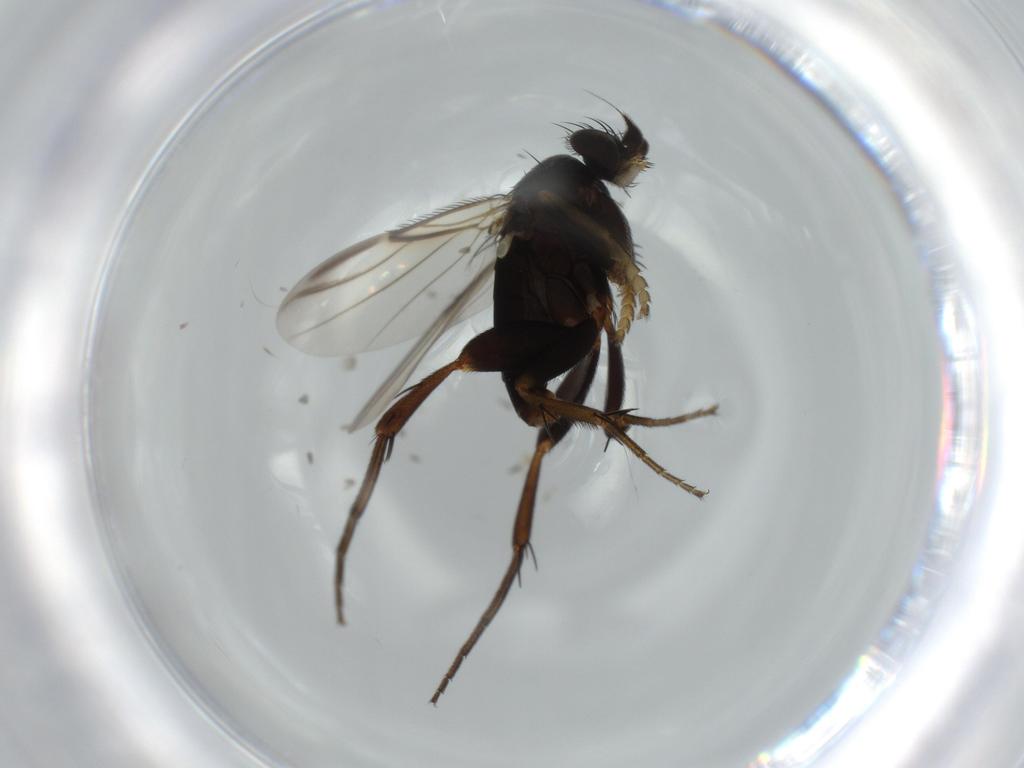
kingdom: Animalia
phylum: Arthropoda
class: Insecta
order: Diptera
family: Phoridae
